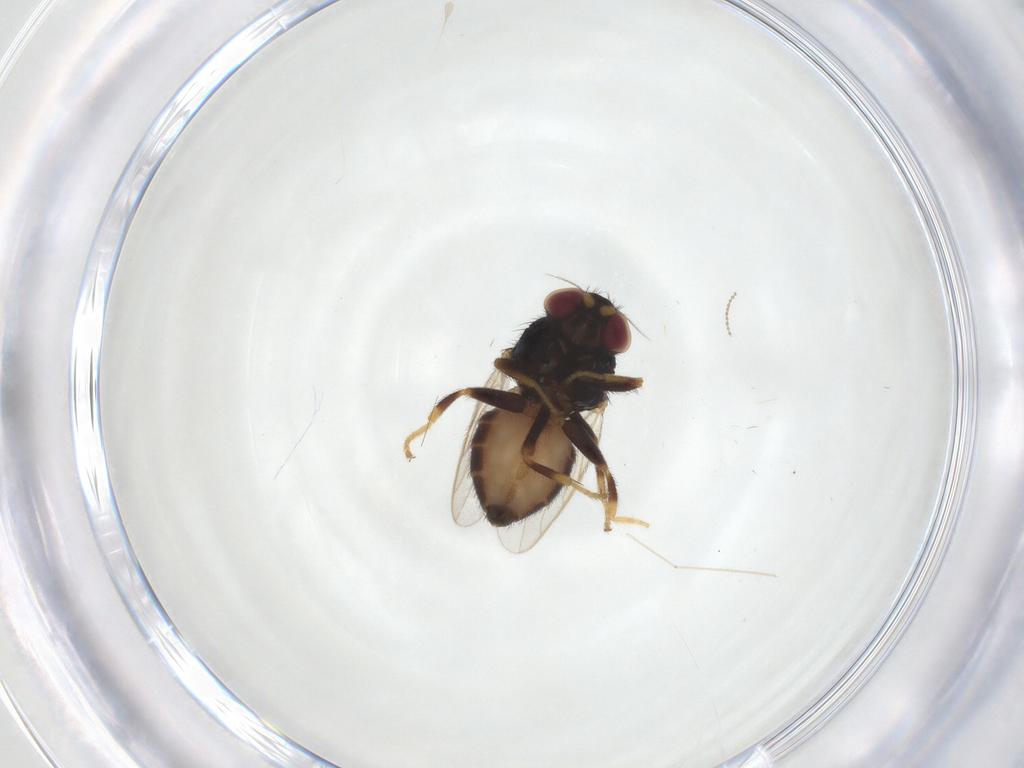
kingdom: Animalia
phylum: Arthropoda
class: Insecta
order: Diptera
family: Chloropidae
